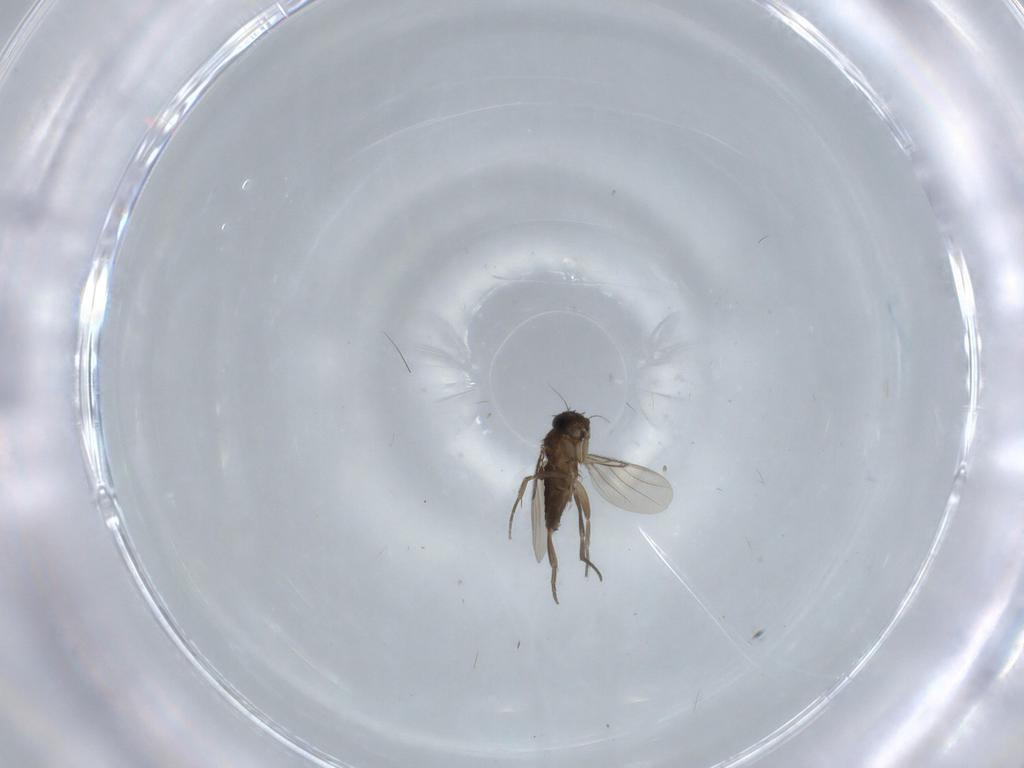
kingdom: Animalia
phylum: Arthropoda
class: Insecta
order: Diptera
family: Phoridae
